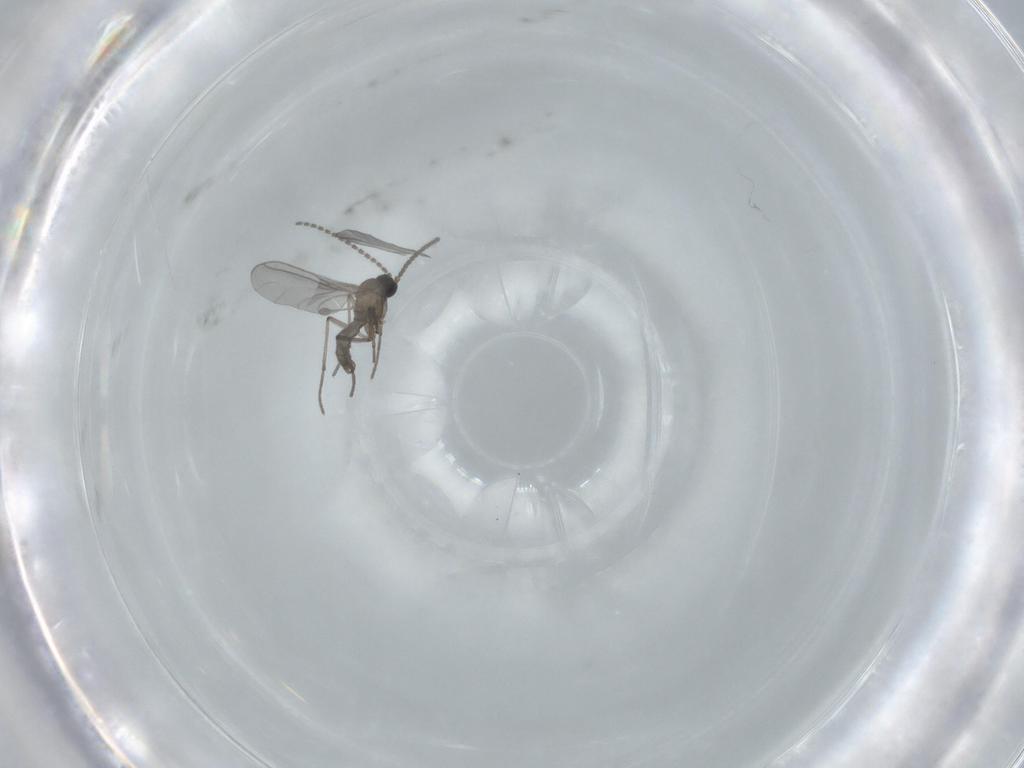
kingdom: Animalia
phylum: Arthropoda
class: Insecta
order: Diptera
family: Sciaridae
